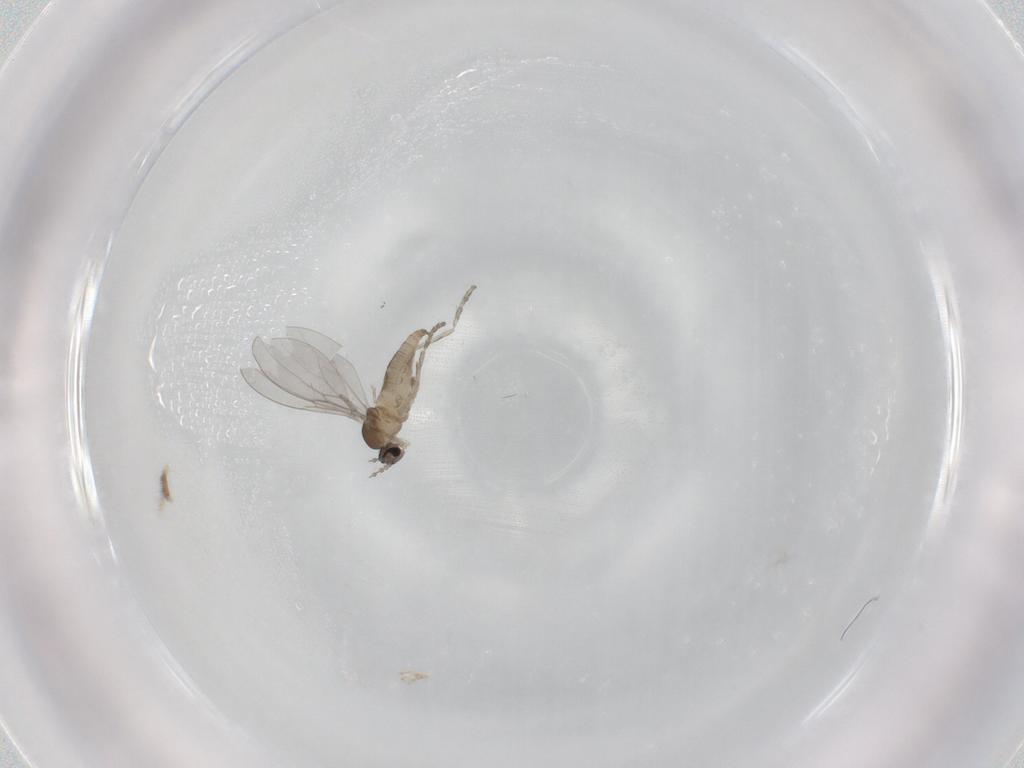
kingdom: Animalia
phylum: Arthropoda
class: Insecta
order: Diptera
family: Cecidomyiidae
